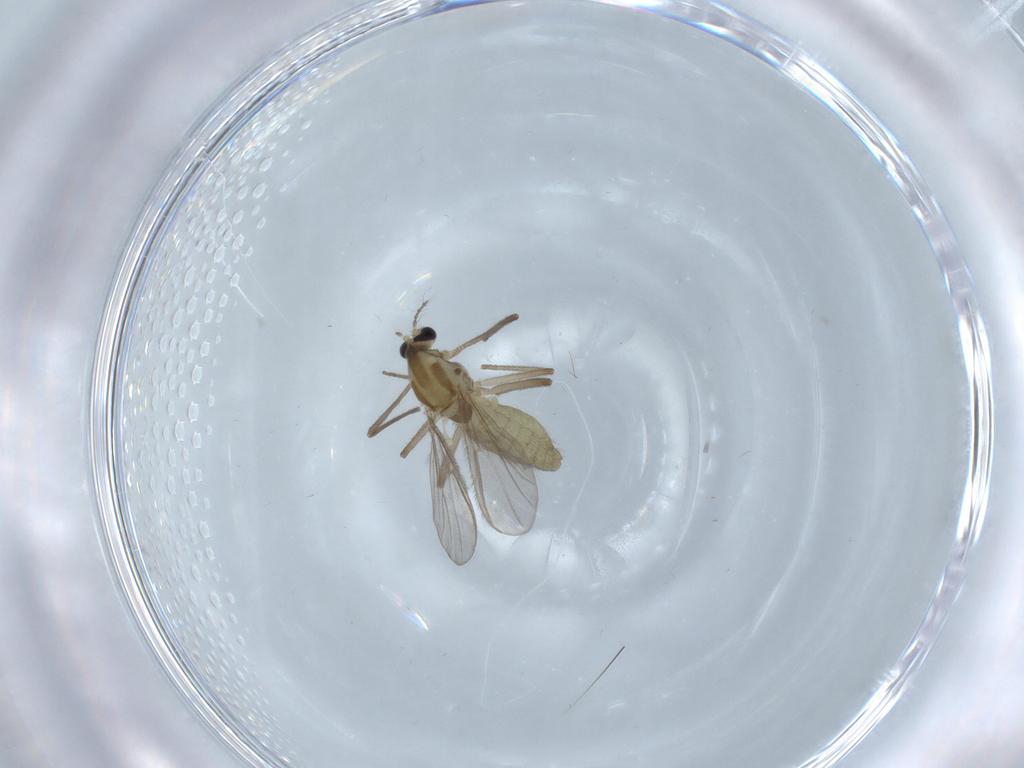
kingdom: Animalia
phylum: Arthropoda
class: Insecta
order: Diptera
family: Chironomidae
